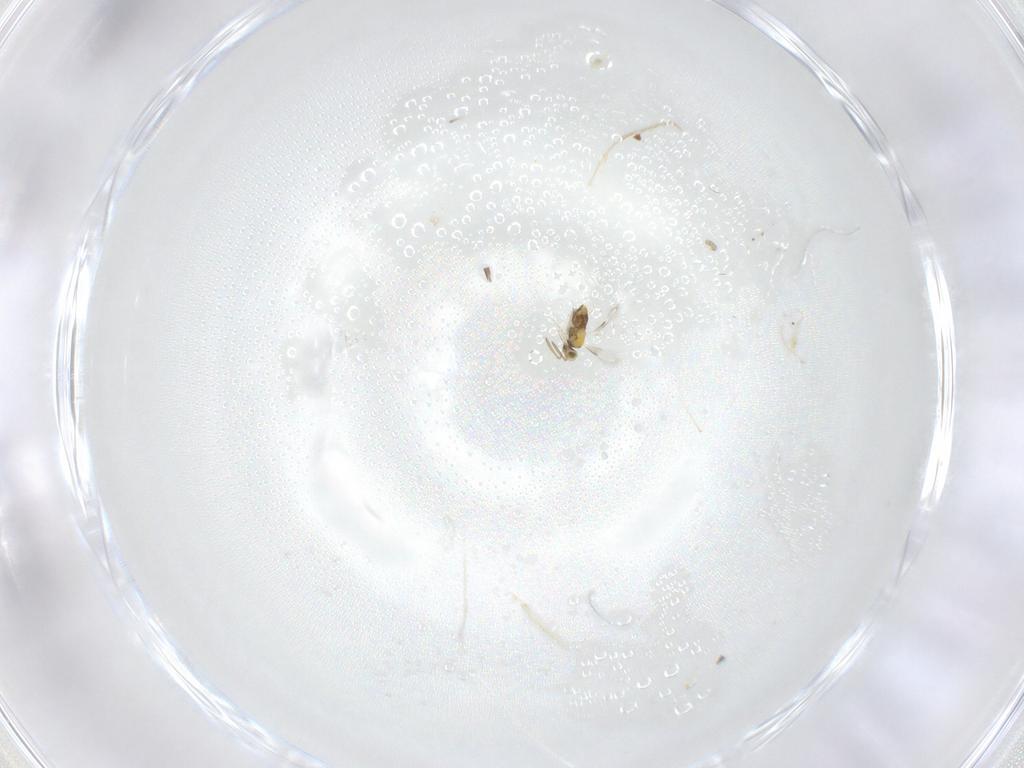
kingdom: Animalia
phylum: Arthropoda
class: Insecta
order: Hymenoptera
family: Aphelinidae
